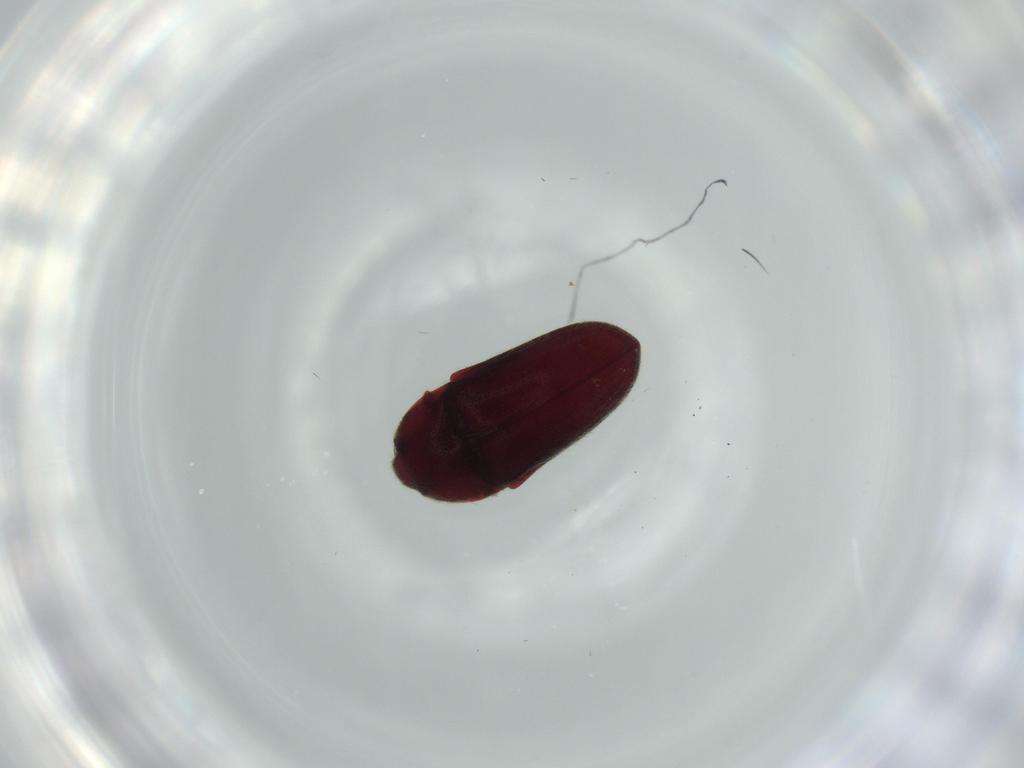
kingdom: Animalia
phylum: Arthropoda
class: Insecta
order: Coleoptera
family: Throscidae
